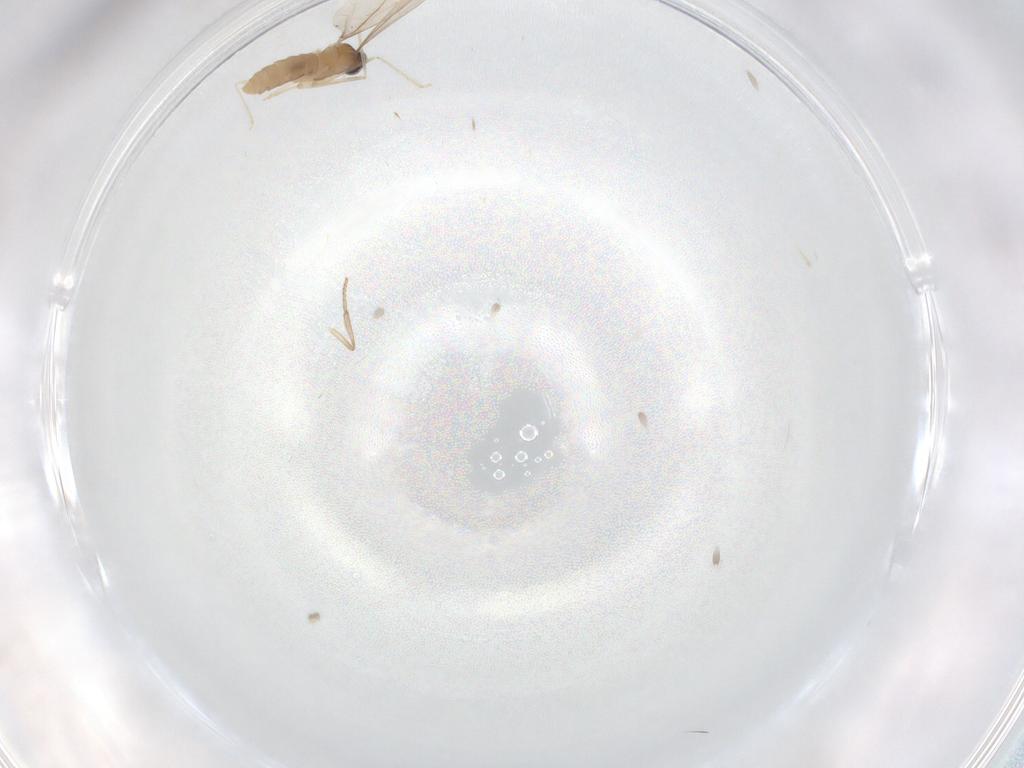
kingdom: Animalia
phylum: Arthropoda
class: Insecta
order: Diptera
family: Cecidomyiidae
